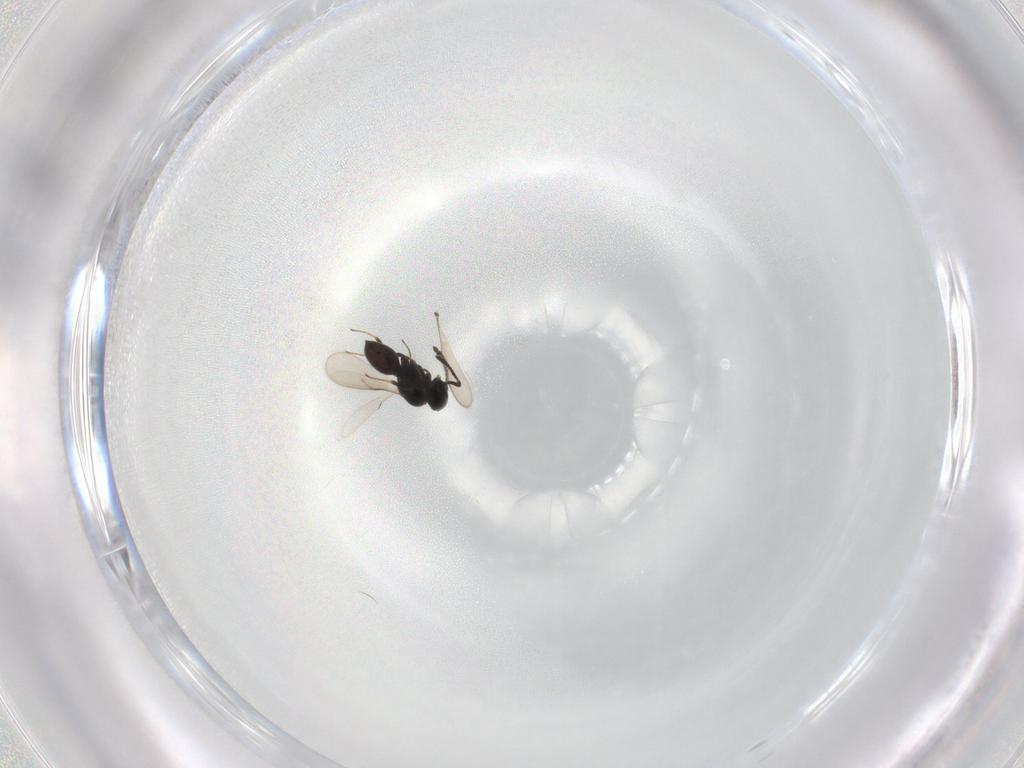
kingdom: Animalia
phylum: Arthropoda
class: Insecta
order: Hymenoptera
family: Scelionidae
